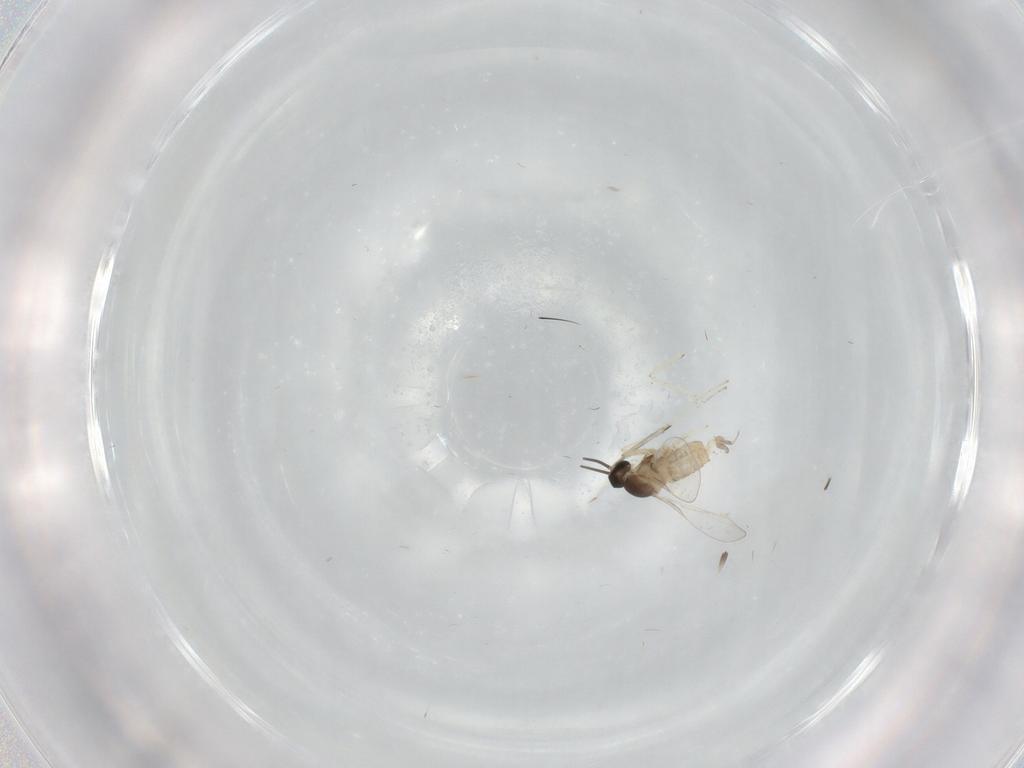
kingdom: Animalia
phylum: Arthropoda
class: Insecta
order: Diptera
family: Cecidomyiidae
